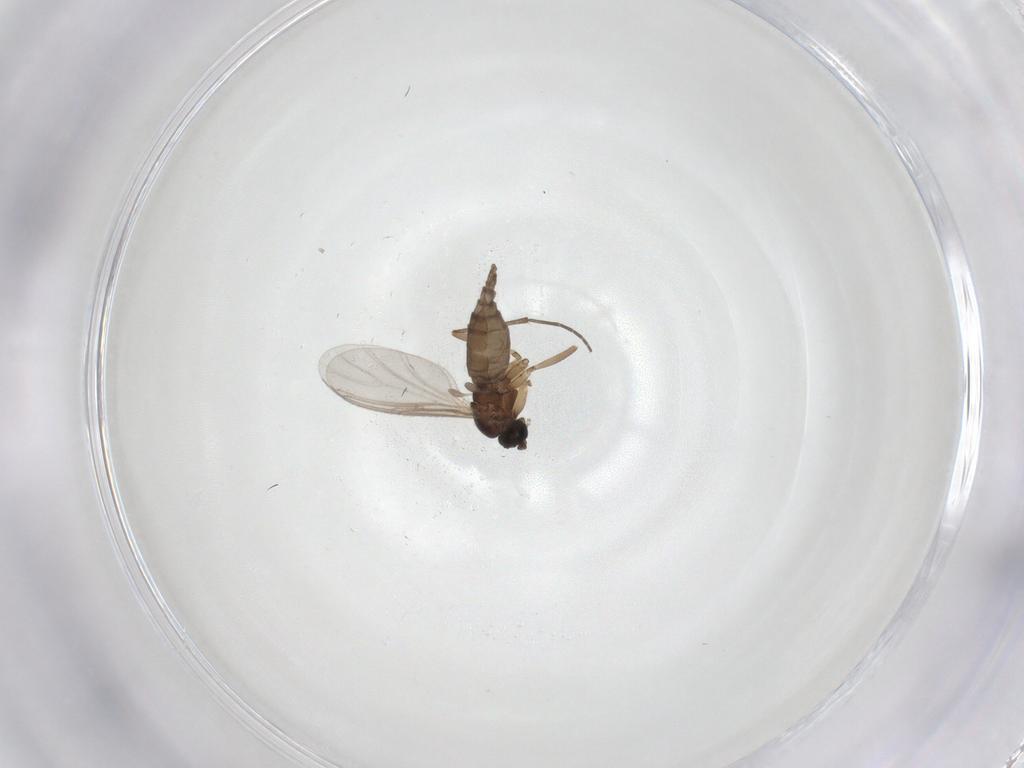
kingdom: Animalia
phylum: Arthropoda
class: Insecta
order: Diptera
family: Sciaridae
